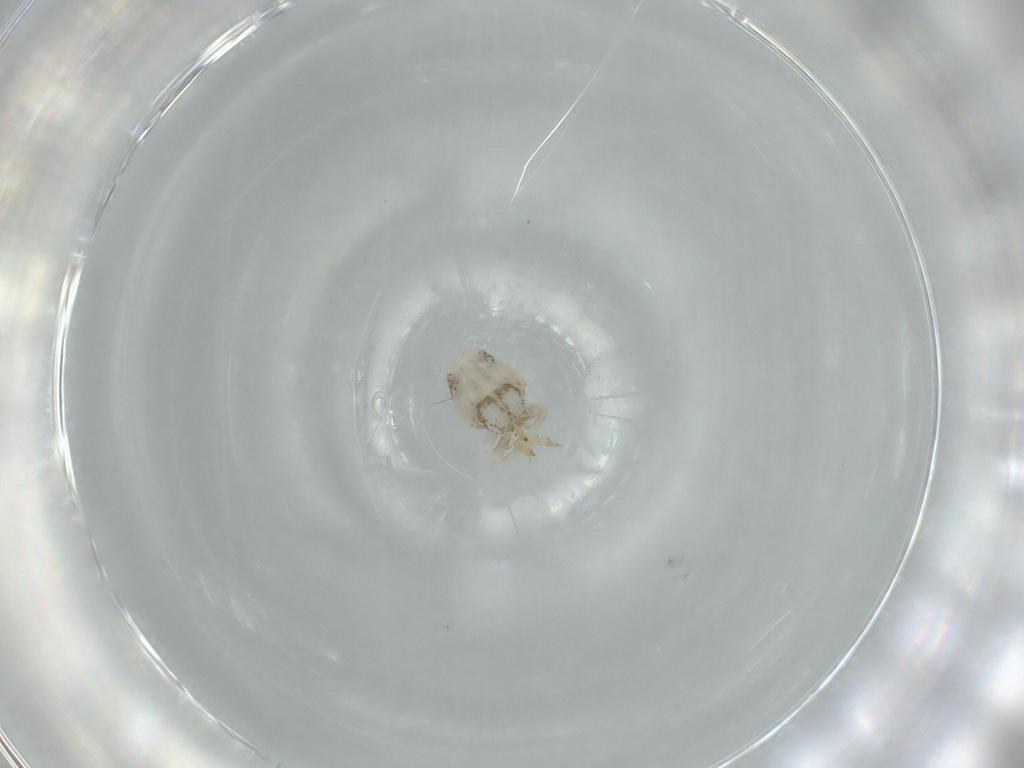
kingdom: Animalia
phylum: Arthropoda
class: Insecta
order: Hemiptera
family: Acanaloniidae
